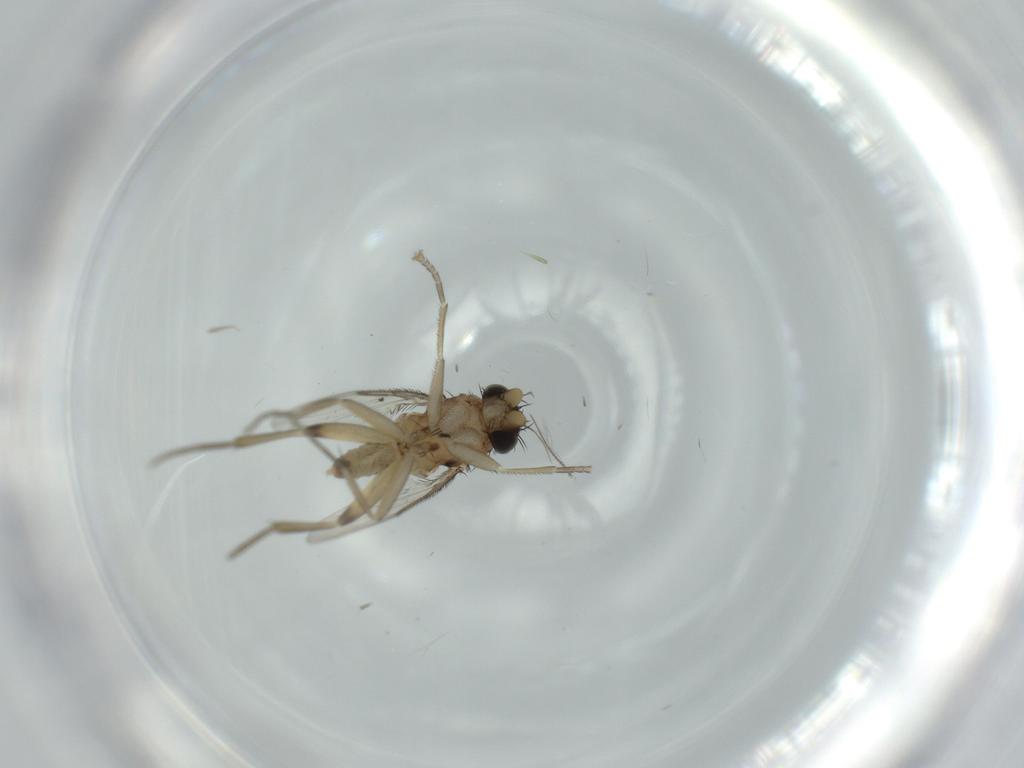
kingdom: Animalia
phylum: Arthropoda
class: Insecta
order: Diptera
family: Phoridae
